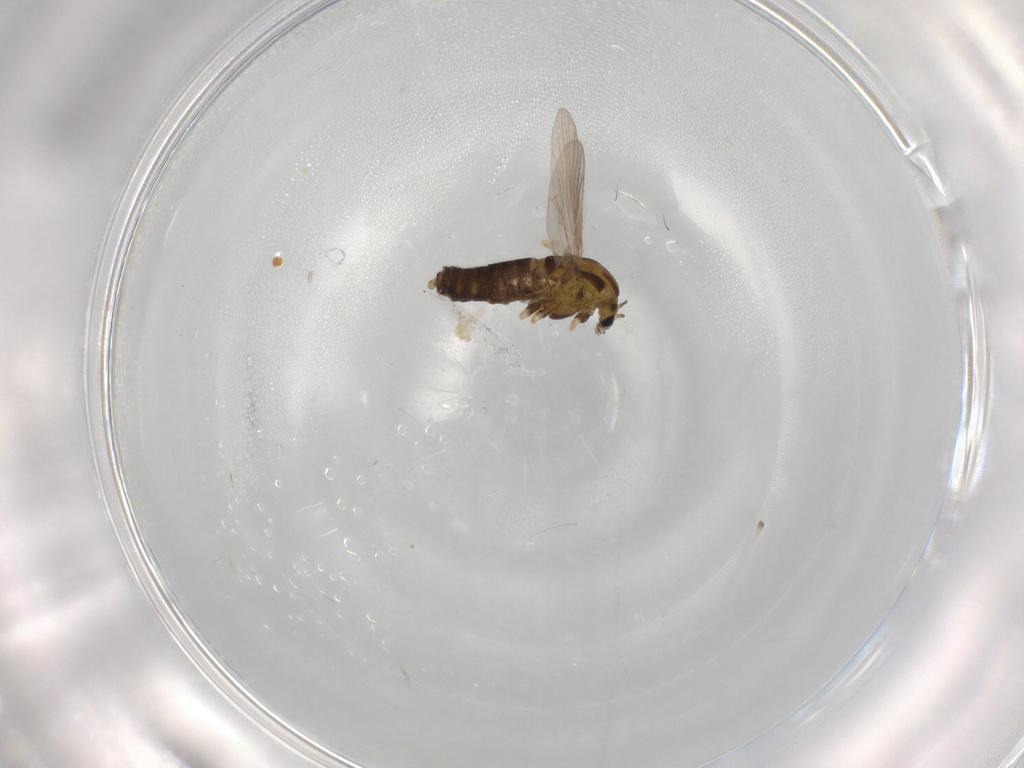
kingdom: Animalia
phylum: Arthropoda
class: Insecta
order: Diptera
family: Chironomidae
